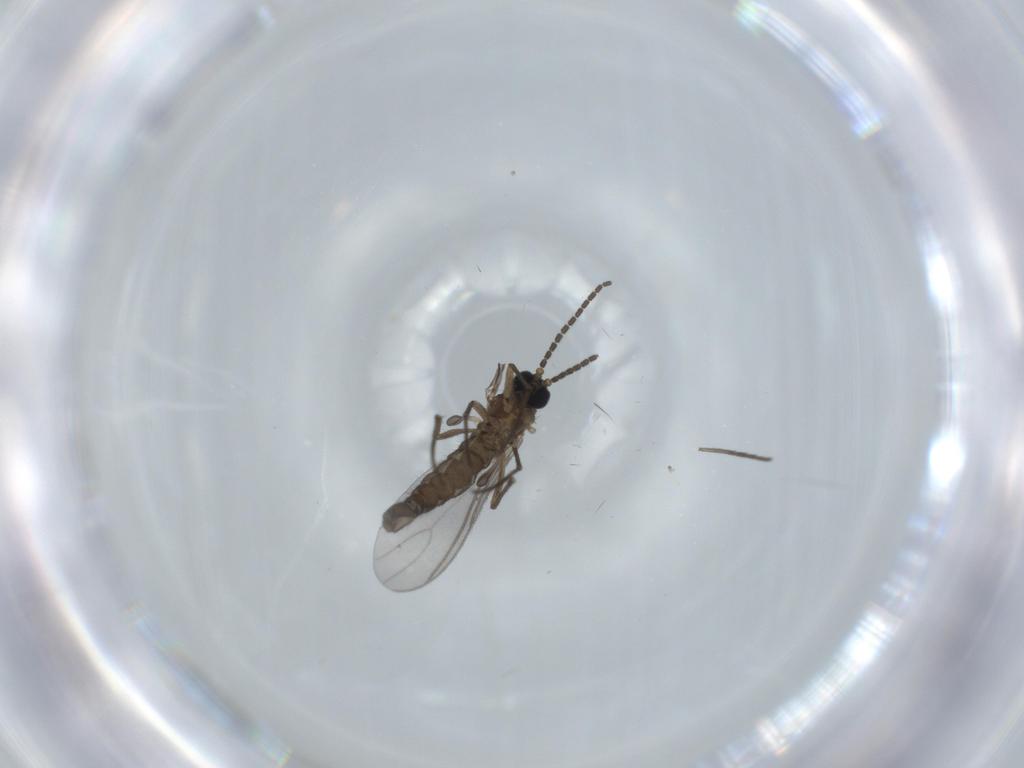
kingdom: Animalia
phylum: Arthropoda
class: Insecta
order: Diptera
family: Sciaridae
